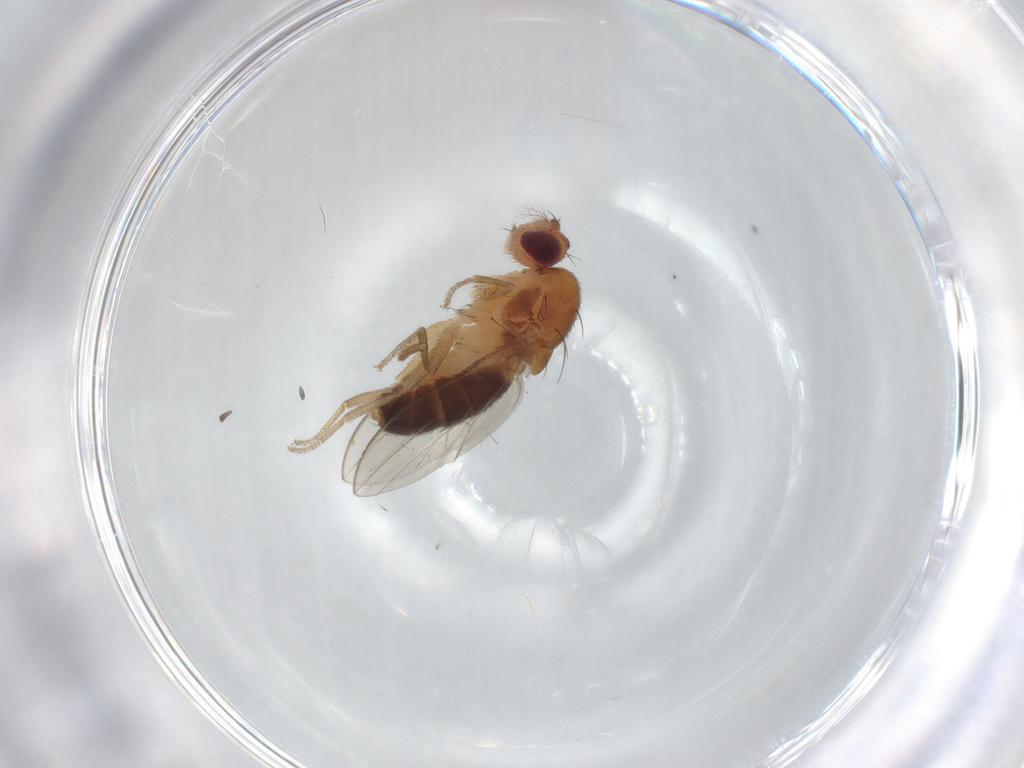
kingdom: Animalia
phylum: Arthropoda
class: Insecta
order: Diptera
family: Drosophilidae
